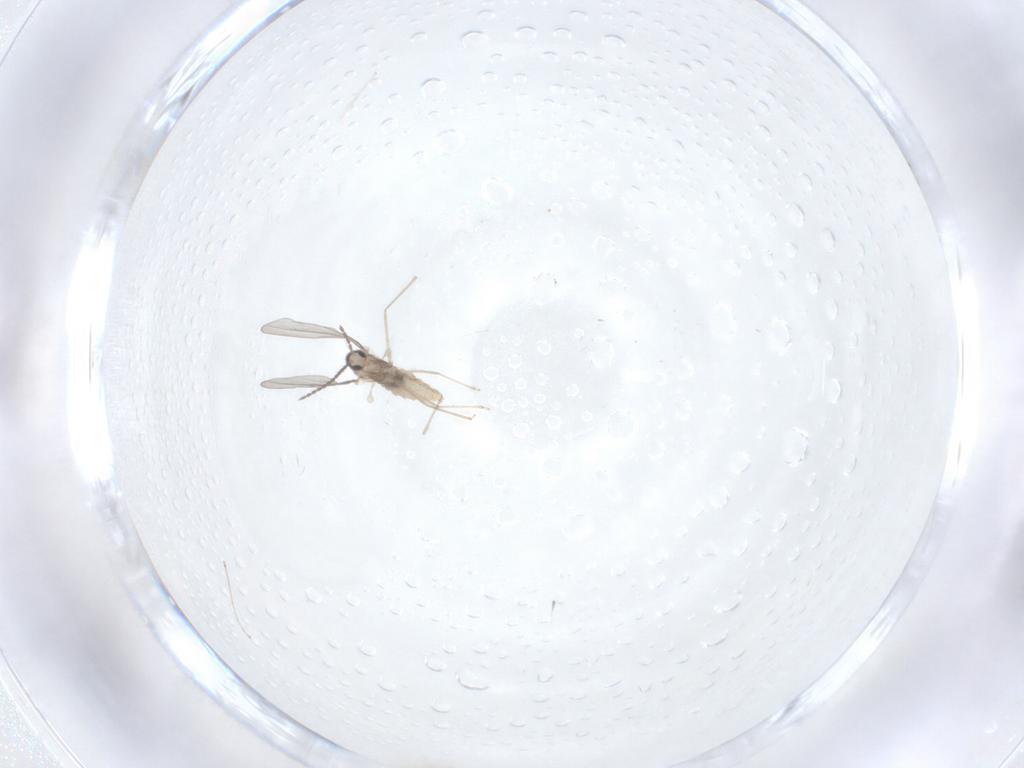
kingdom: Animalia
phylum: Arthropoda
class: Insecta
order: Diptera
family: Cecidomyiidae
